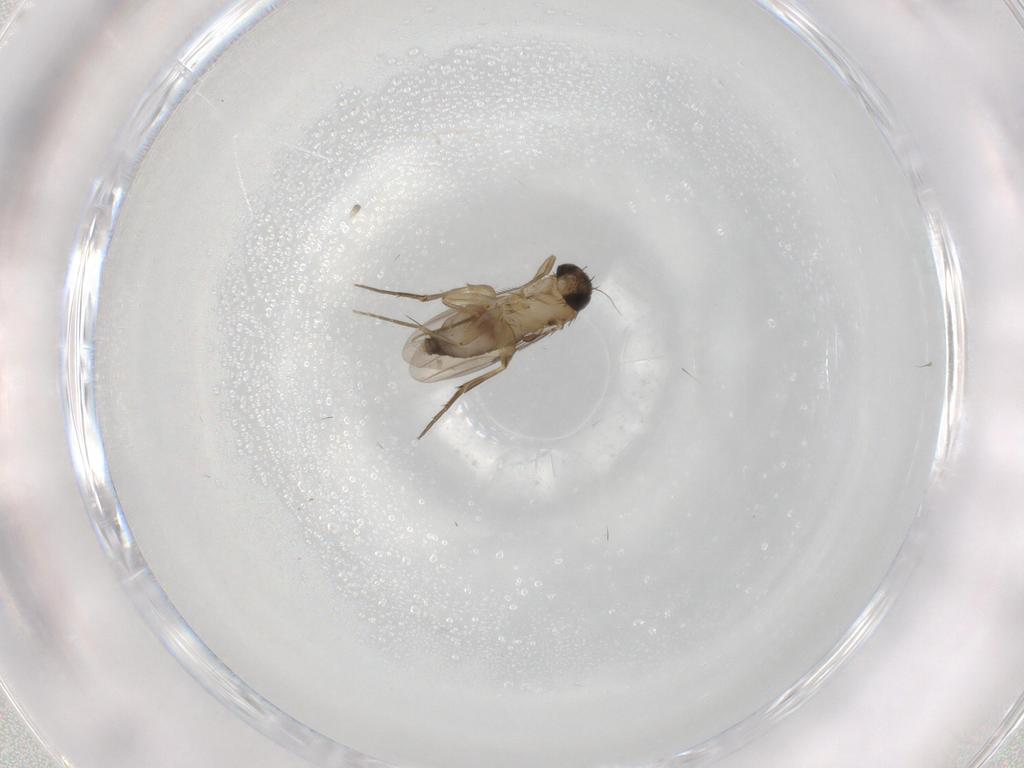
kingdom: Animalia
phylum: Arthropoda
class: Insecta
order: Diptera
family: Phoridae
